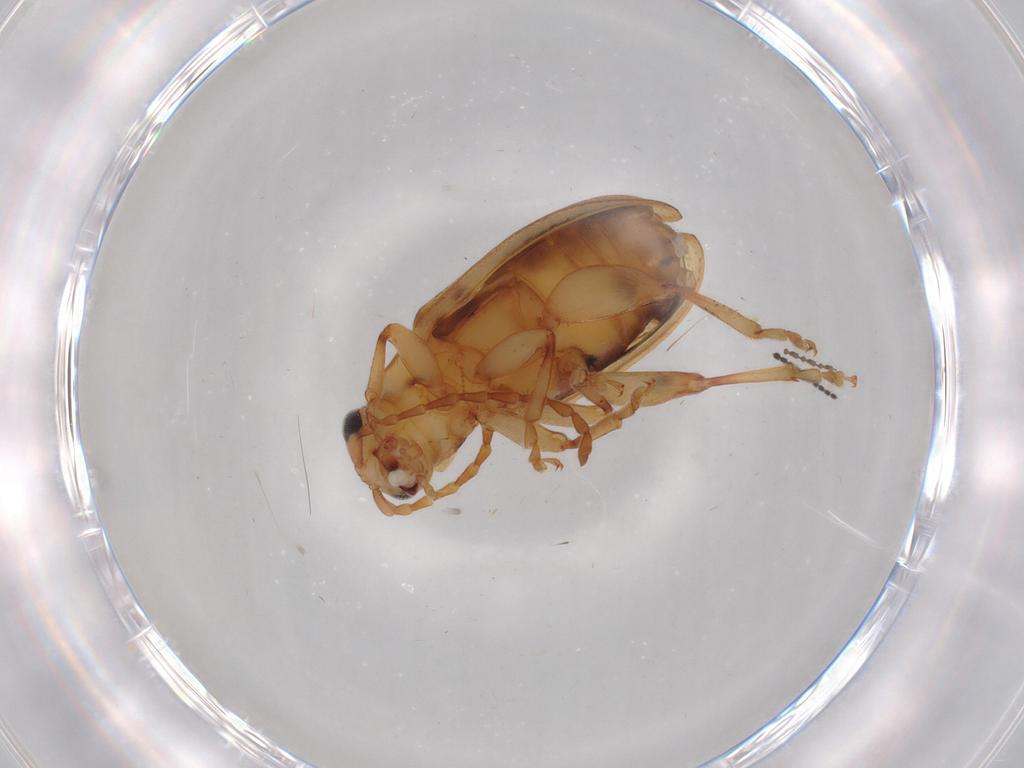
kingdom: Animalia
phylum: Arthropoda
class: Insecta
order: Coleoptera
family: Chrysomelidae
